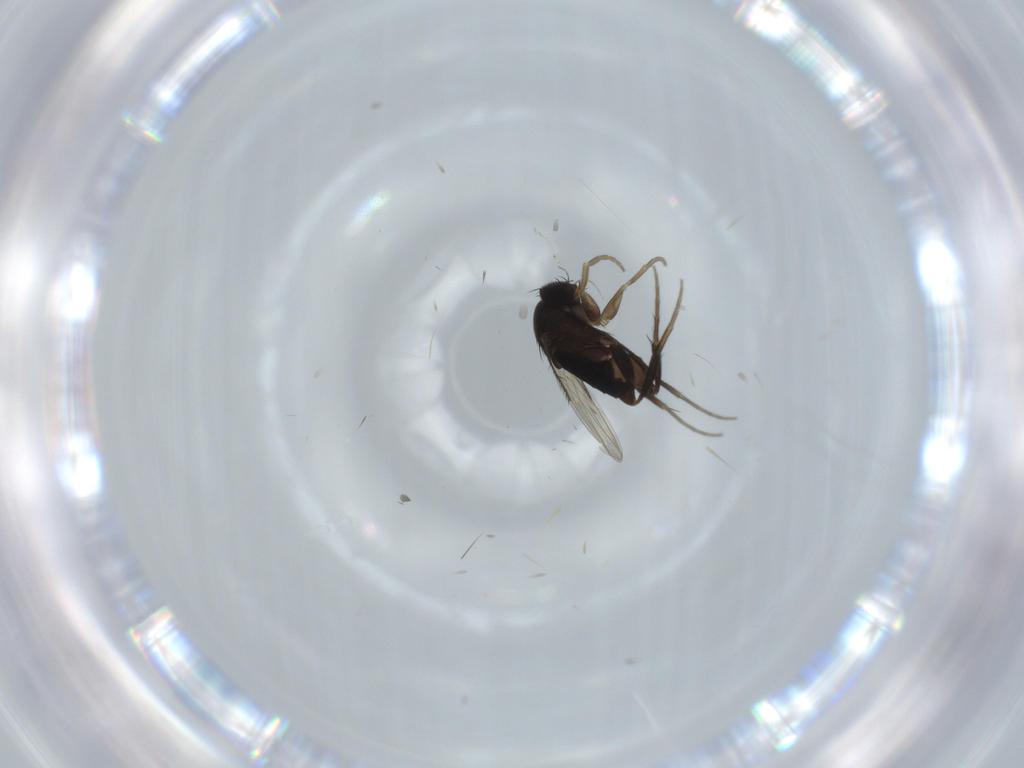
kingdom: Animalia
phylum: Arthropoda
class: Insecta
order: Diptera
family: Phoridae
